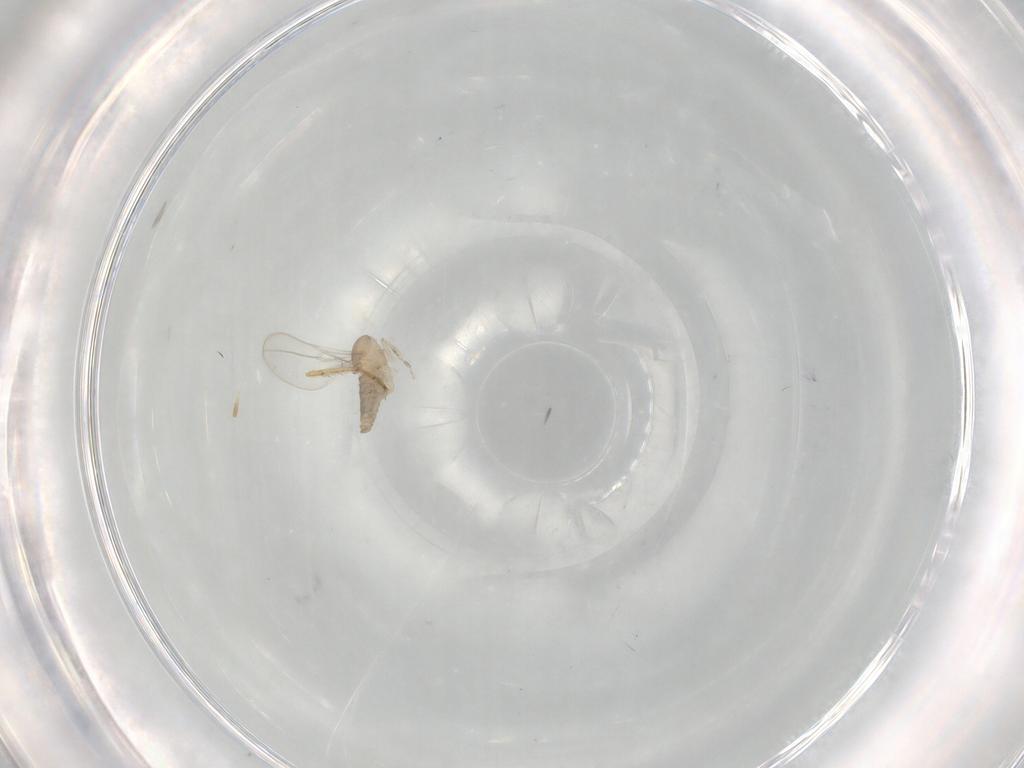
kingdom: Animalia
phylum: Arthropoda
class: Insecta
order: Diptera
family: Cecidomyiidae
